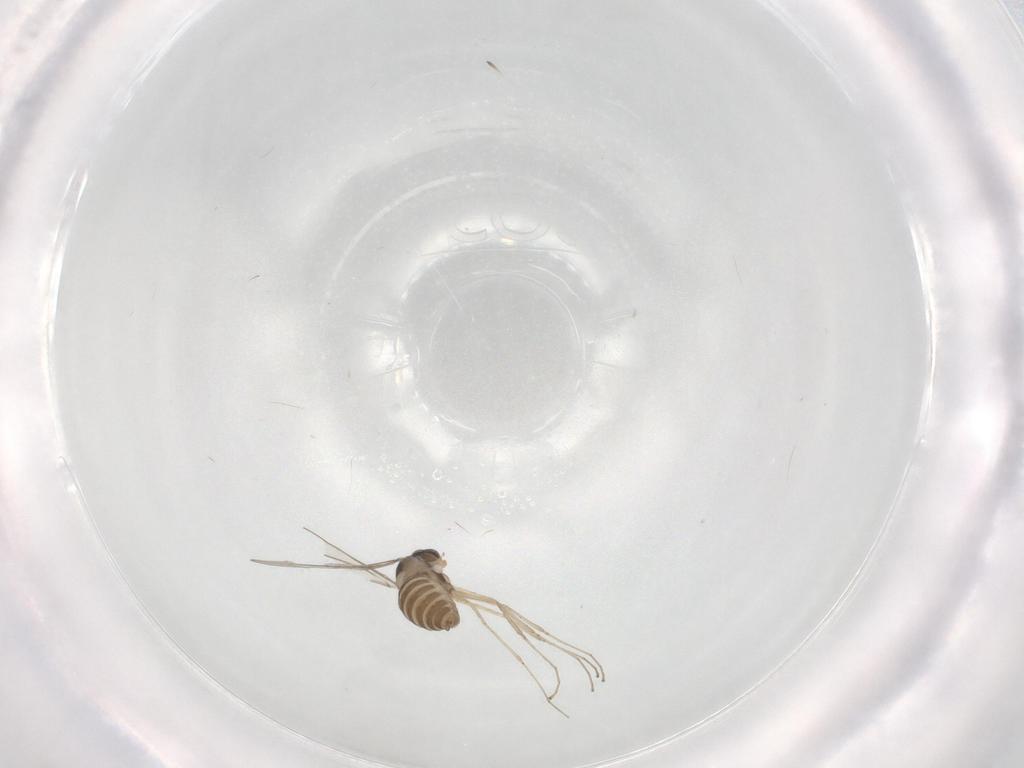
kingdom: Animalia
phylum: Arthropoda
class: Insecta
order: Diptera
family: Cecidomyiidae
